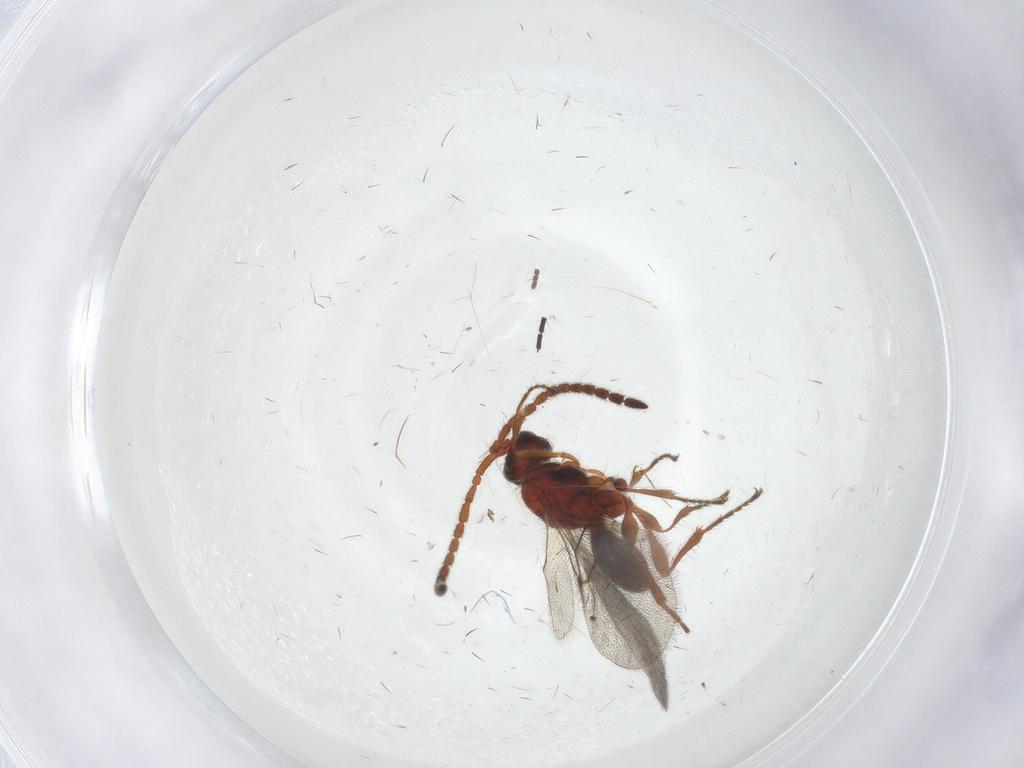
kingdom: Animalia
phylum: Arthropoda
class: Insecta
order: Hymenoptera
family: Diapriidae
